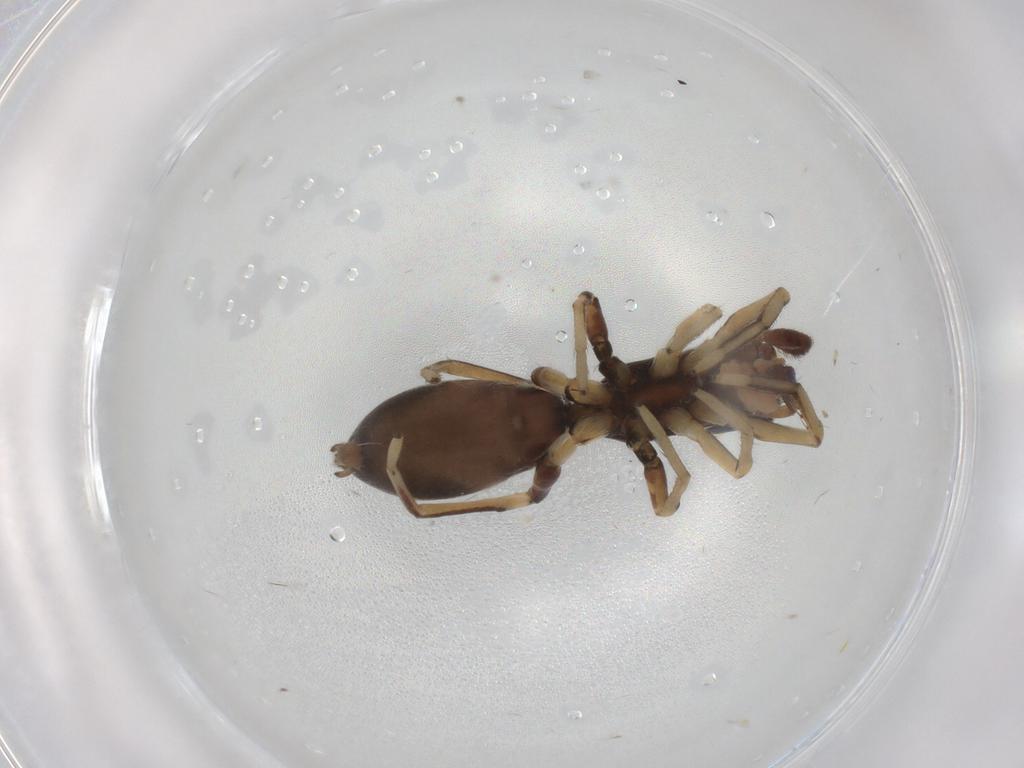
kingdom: Animalia
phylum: Arthropoda
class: Arachnida
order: Araneae
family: Salticidae
